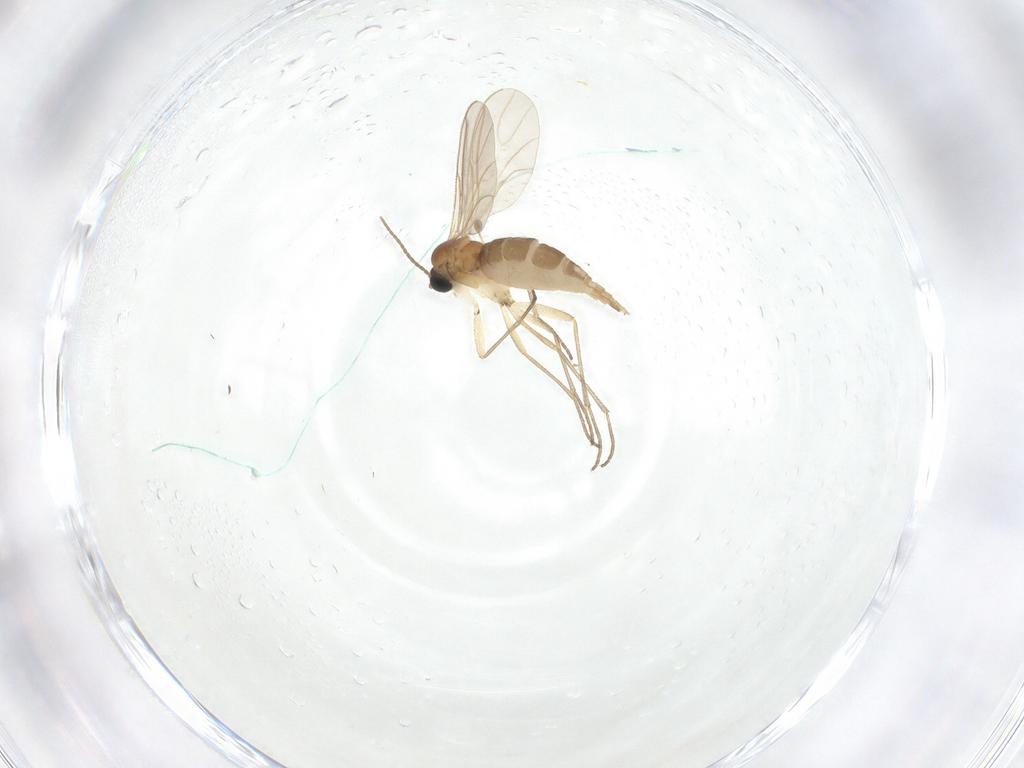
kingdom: Animalia
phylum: Arthropoda
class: Insecta
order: Diptera
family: Sciaridae
